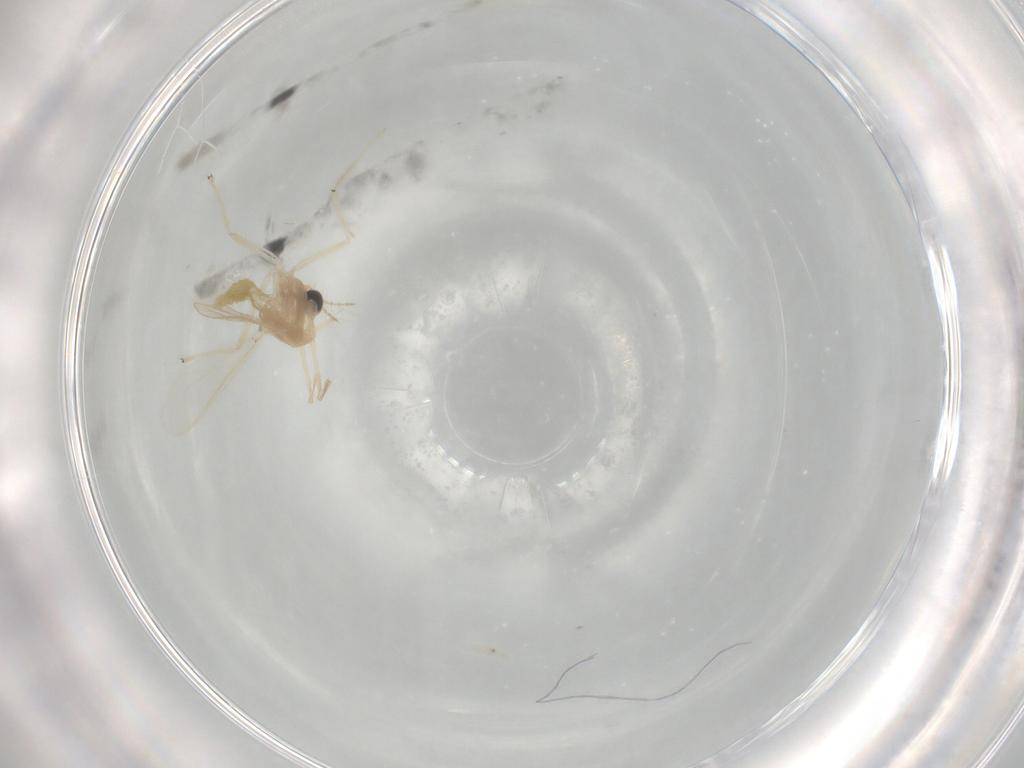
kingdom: Animalia
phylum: Arthropoda
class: Insecta
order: Diptera
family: Chironomidae
